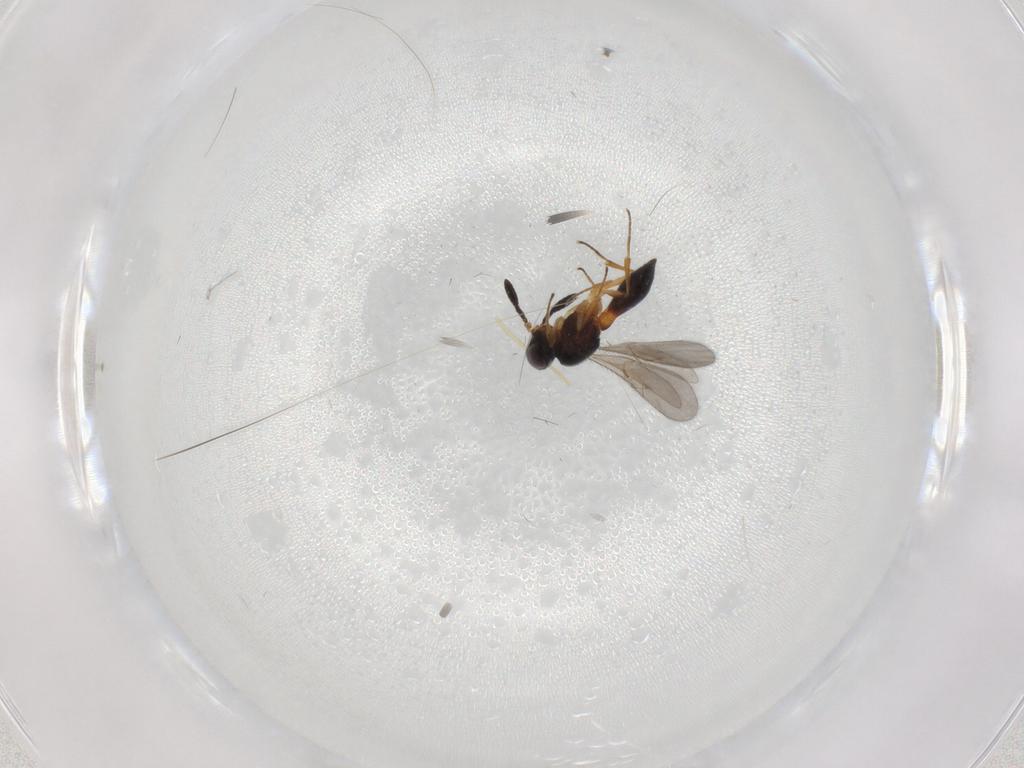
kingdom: Animalia
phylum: Arthropoda
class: Insecta
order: Hymenoptera
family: Scelionidae
